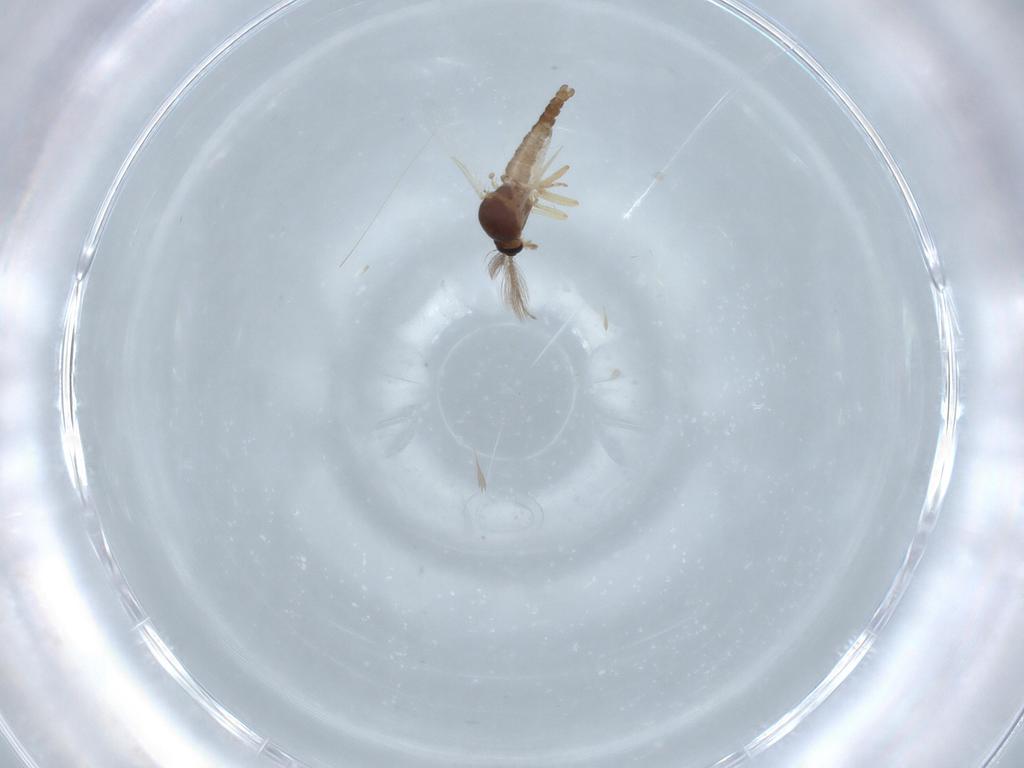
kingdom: Animalia
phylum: Arthropoda
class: Insecta
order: Diptera
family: Ceratopogonidae
